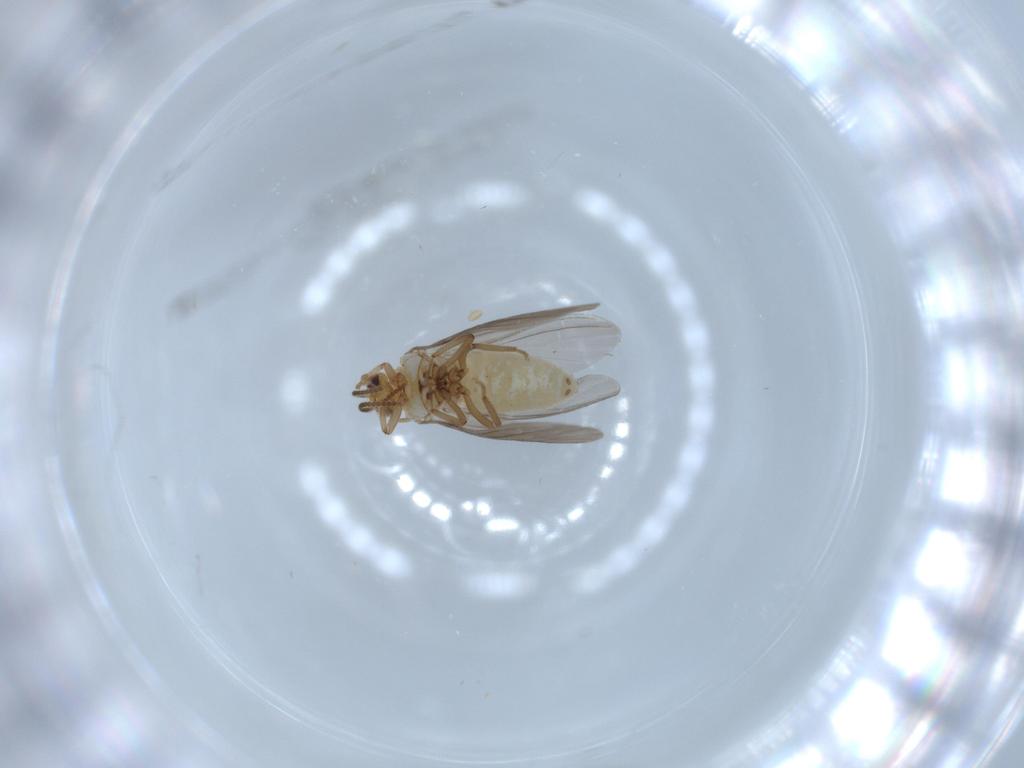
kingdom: Animalia
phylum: Arthropoda
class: Insecta
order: Neuroptera
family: Coniopterygidae
